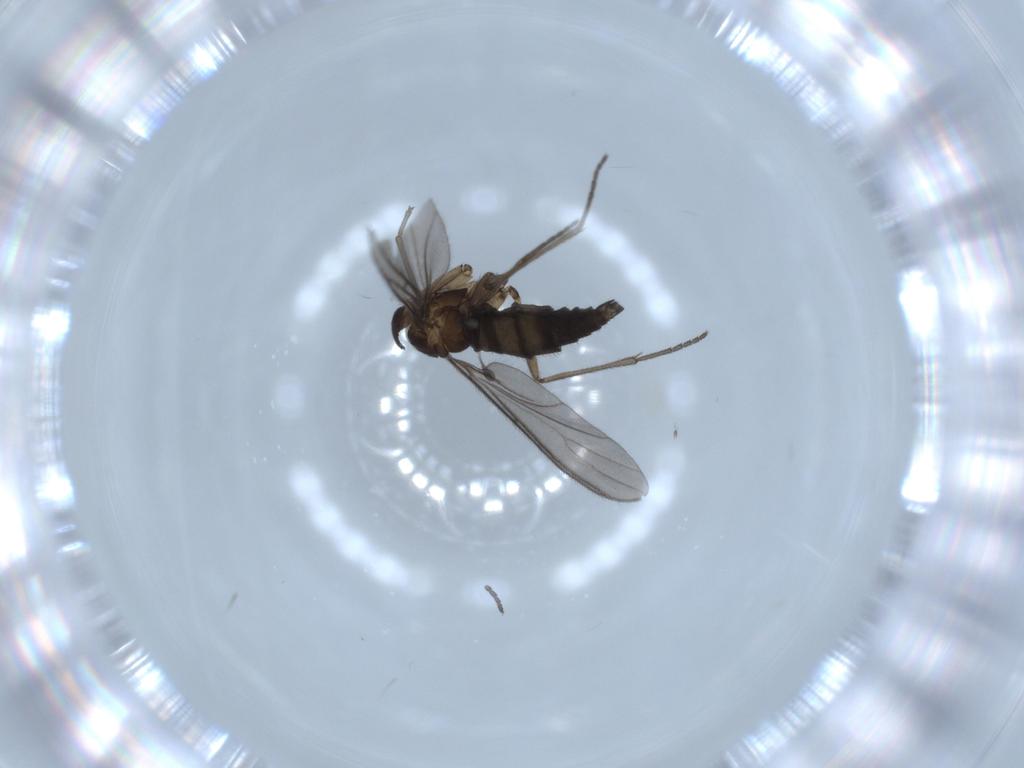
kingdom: Animalia
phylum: Arthropoda
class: Insecta
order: Diptera
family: Sciaridae
